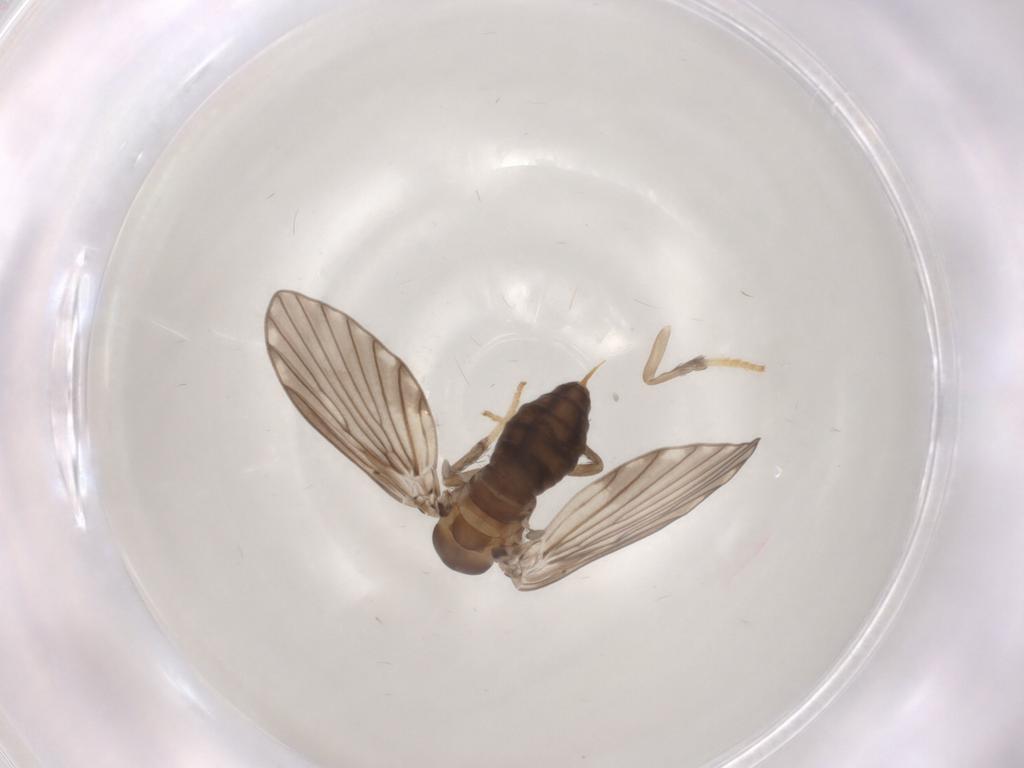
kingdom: Animalia
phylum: Arthropoda
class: Insecta
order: Diptera
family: Psychodidae
